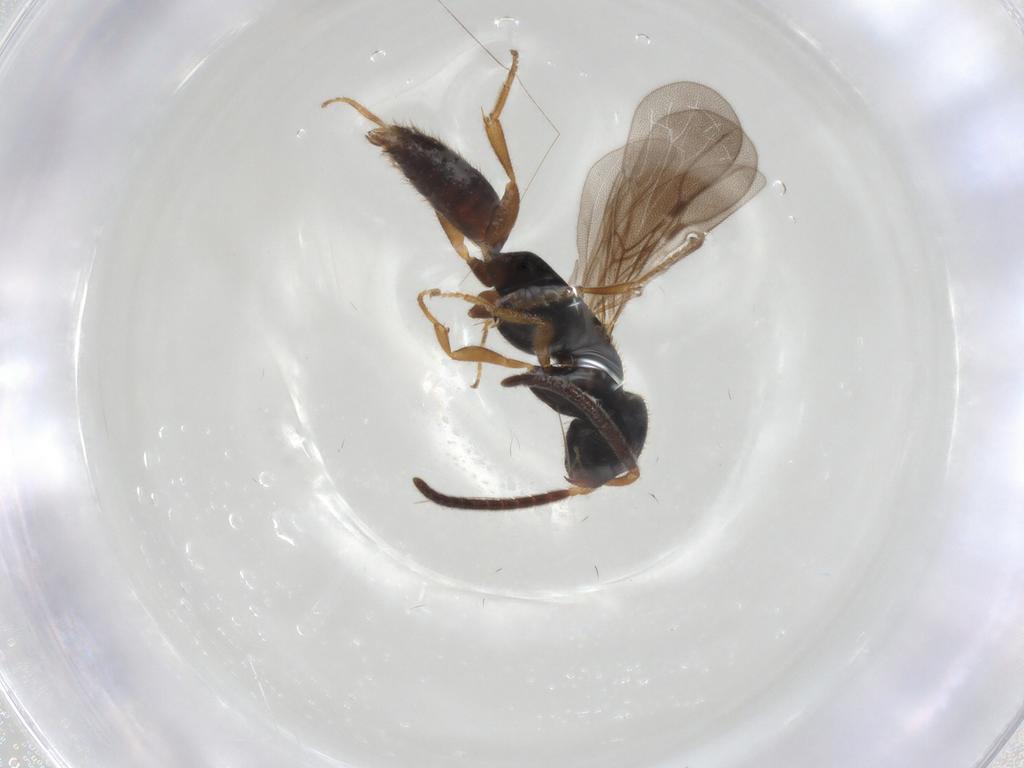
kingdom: Animalia
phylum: Arthropoda
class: Insecta
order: Hymenoptera
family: Bethylidae
